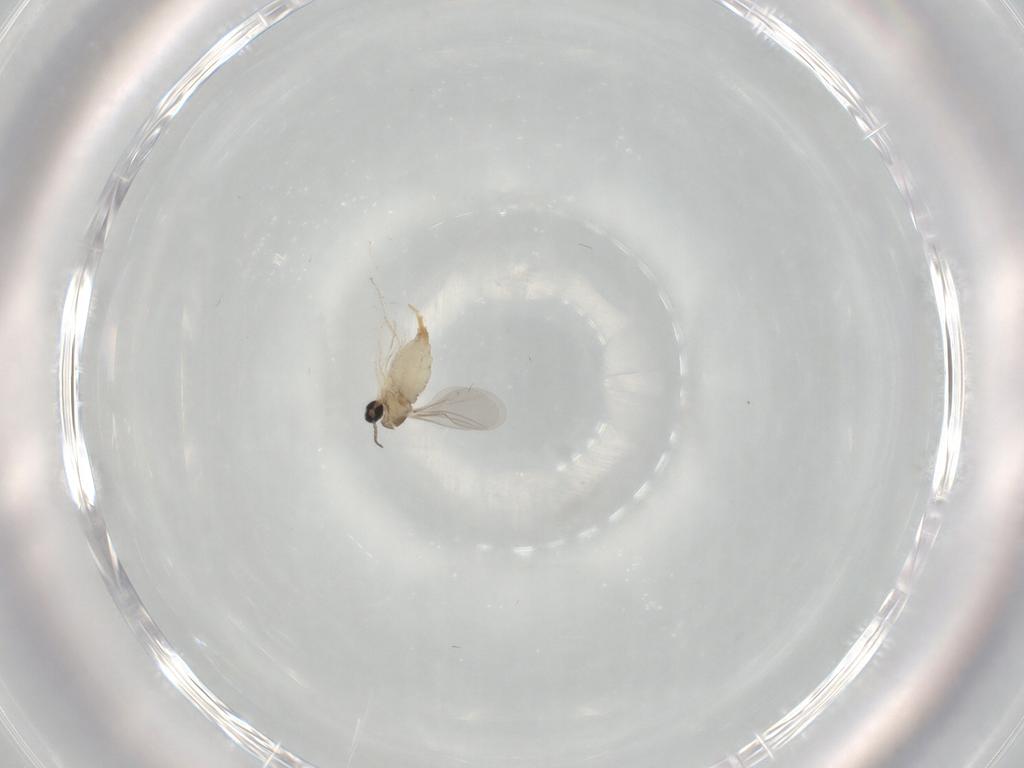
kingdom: Animalia
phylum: Arthropoda
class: Insecta
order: Diptera
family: Cecidomyiidae
